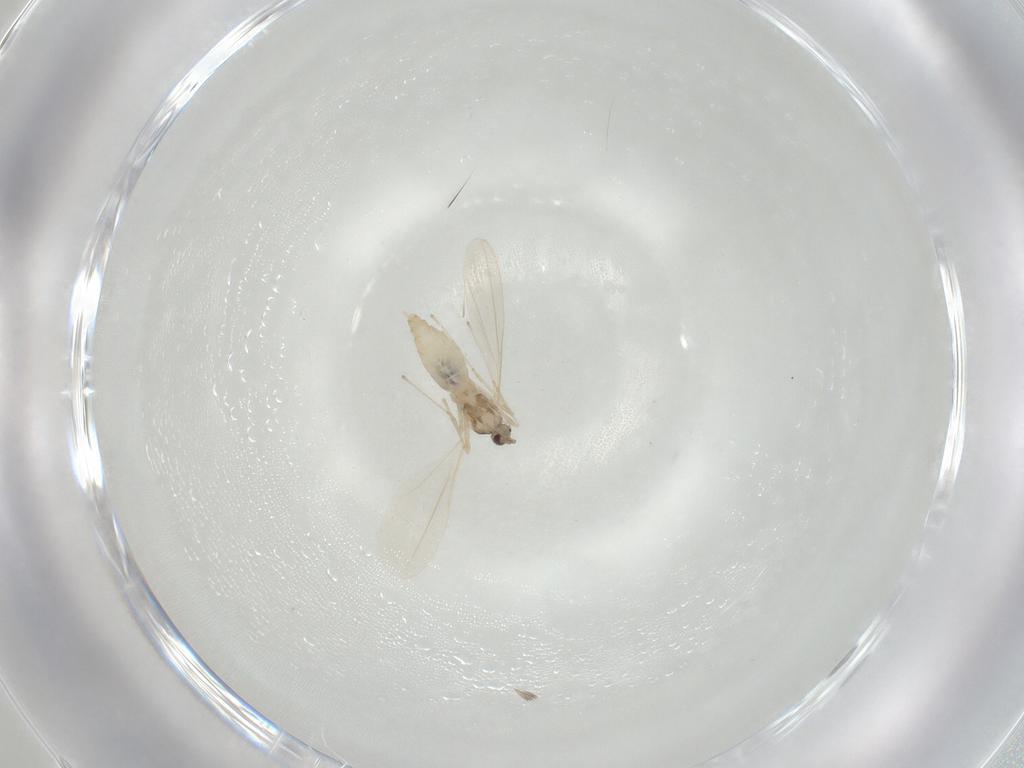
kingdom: Animalia
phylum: Arthropoda
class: Insecta
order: Diptera
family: Cecidomyiidae
